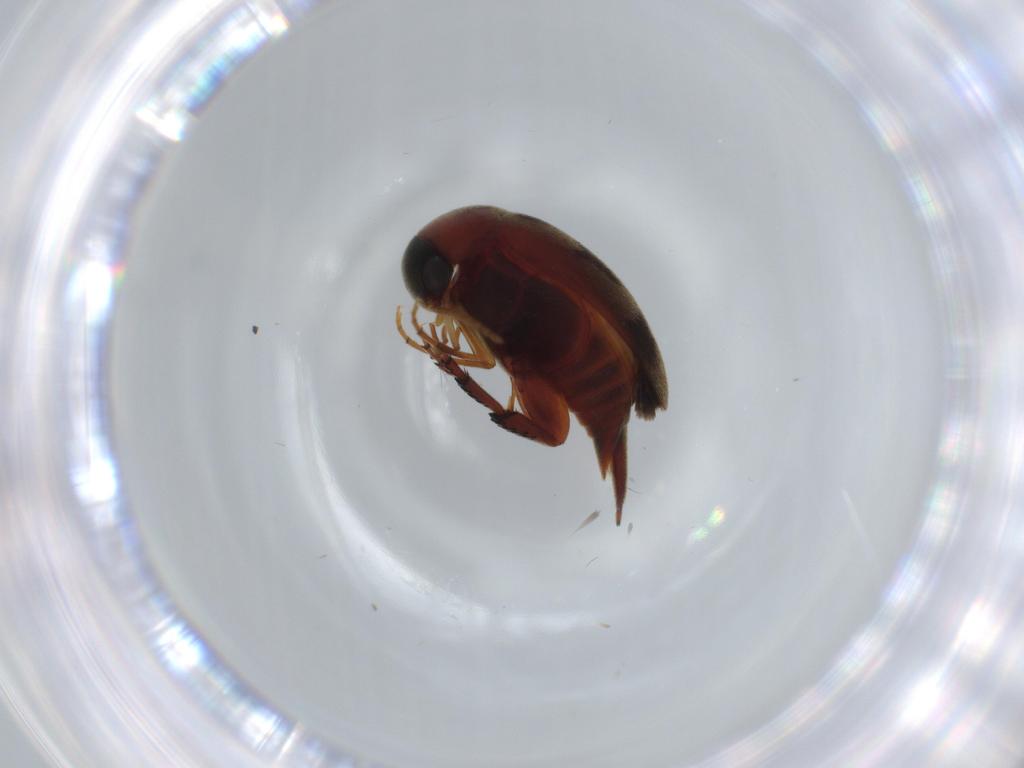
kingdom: Animalia
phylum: Arthropoda
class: Insecta
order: Coleoptera
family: Mordellidae
